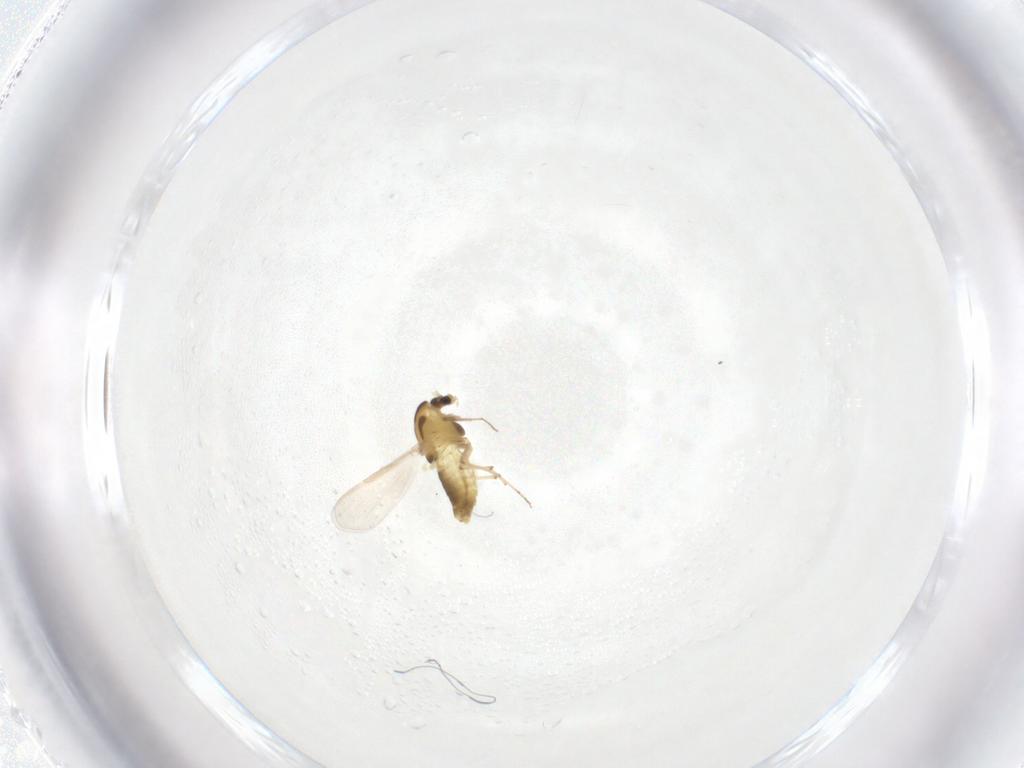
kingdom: Animalia
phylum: Arthropoda
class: Insecta
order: Diptera
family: Chironomidae
